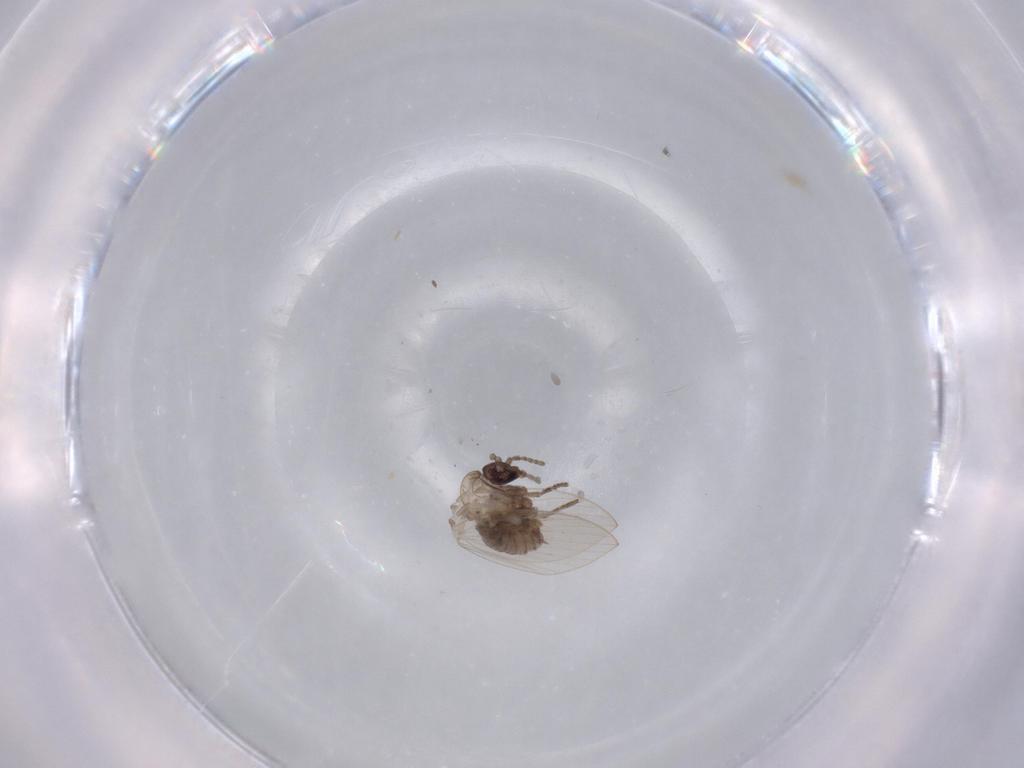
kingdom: Animalia
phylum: Arthropoda
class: Insecta
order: Diptera
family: Psychodidae
